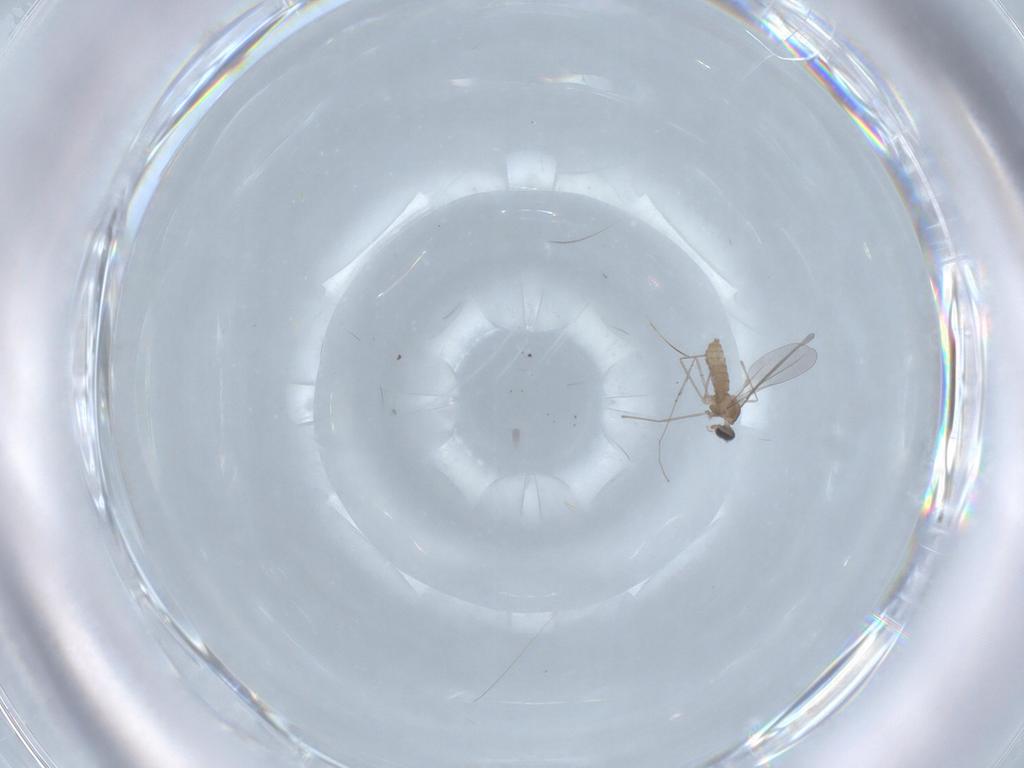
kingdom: Animalia
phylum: Arthropoda
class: Insecta
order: Diptera
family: Cecidomyiidae
